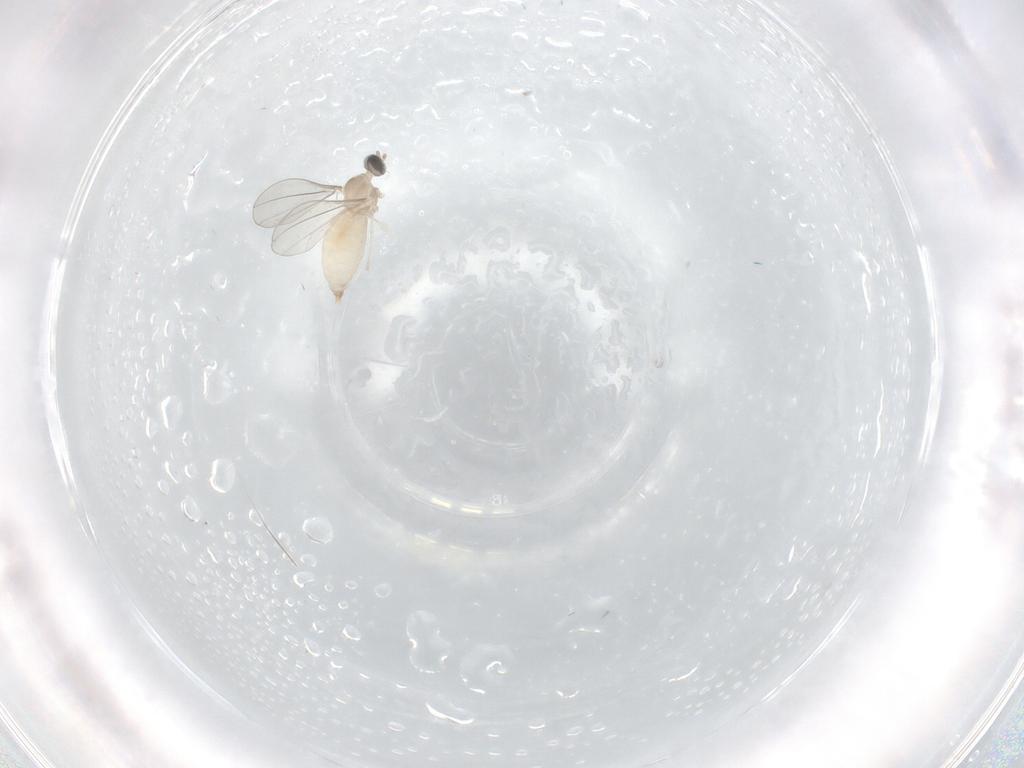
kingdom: Animalia
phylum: Arthropoda
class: Insecta
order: Diptera
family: Cecidomyiidae
